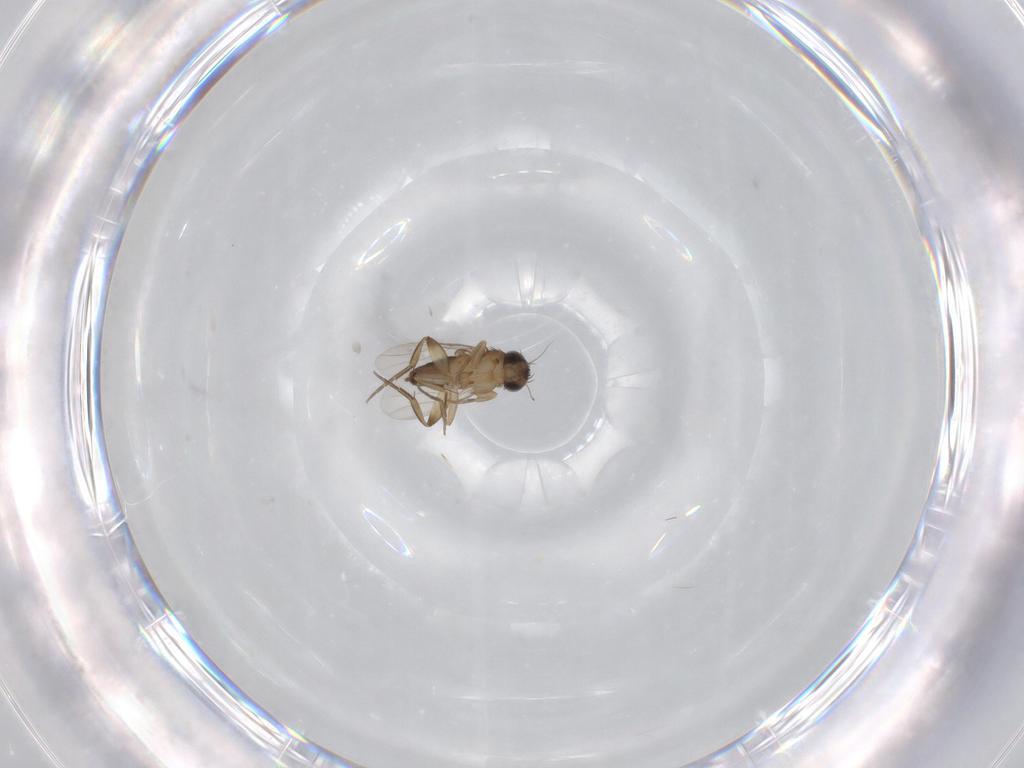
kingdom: Animalia
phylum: Arthropoda
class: Insecta
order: Diptera
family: Phoridae
